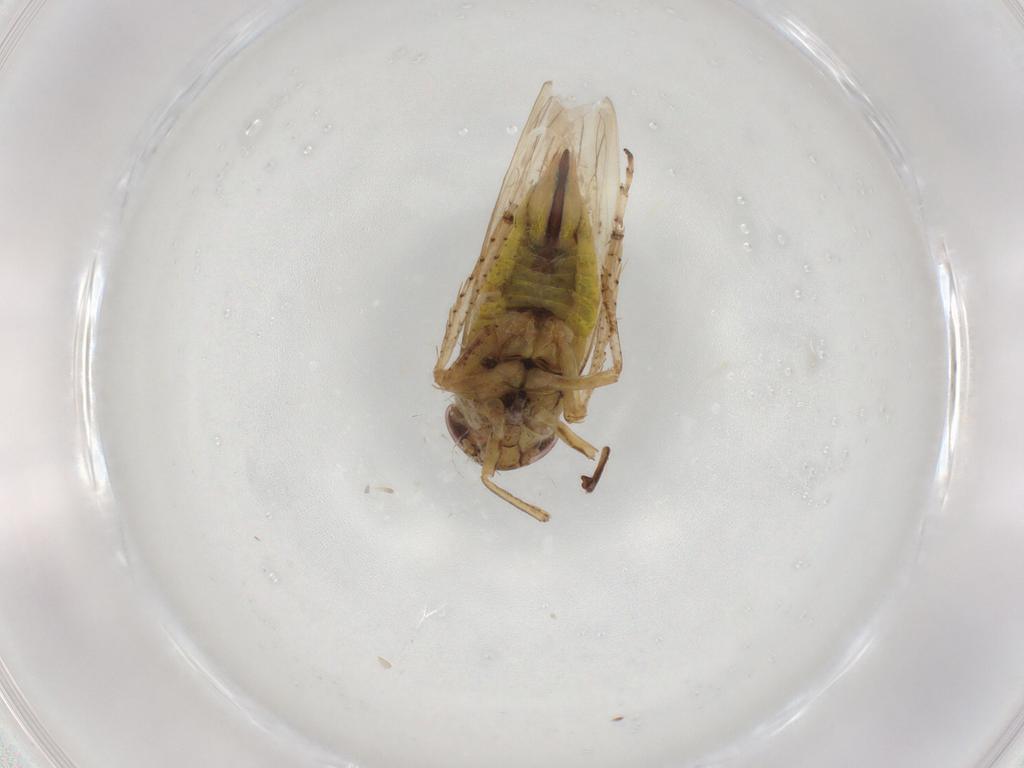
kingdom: Animalia
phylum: Arthropoda
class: Insecta
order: Hemiptera
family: Cicadellidae
